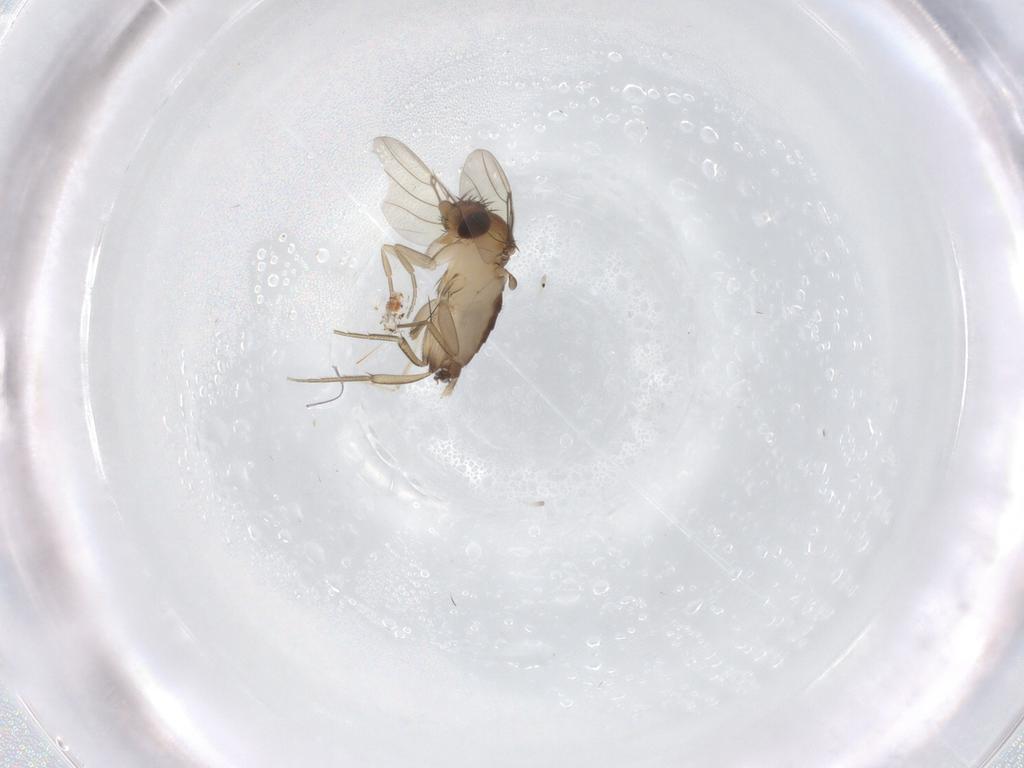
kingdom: Animalia
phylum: Arthropoda
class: Insecta
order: Diptera
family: Phoridae
